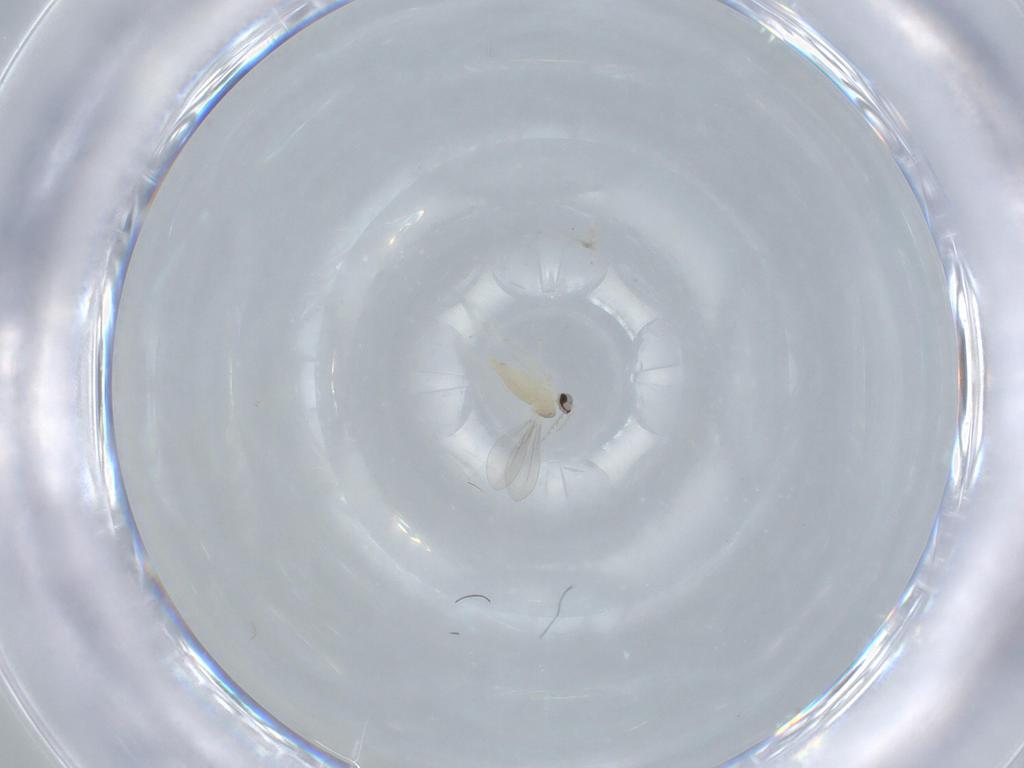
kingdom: Animalia
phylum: Arthropoda
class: Insecta
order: Diptera
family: Cecidomyiidae
